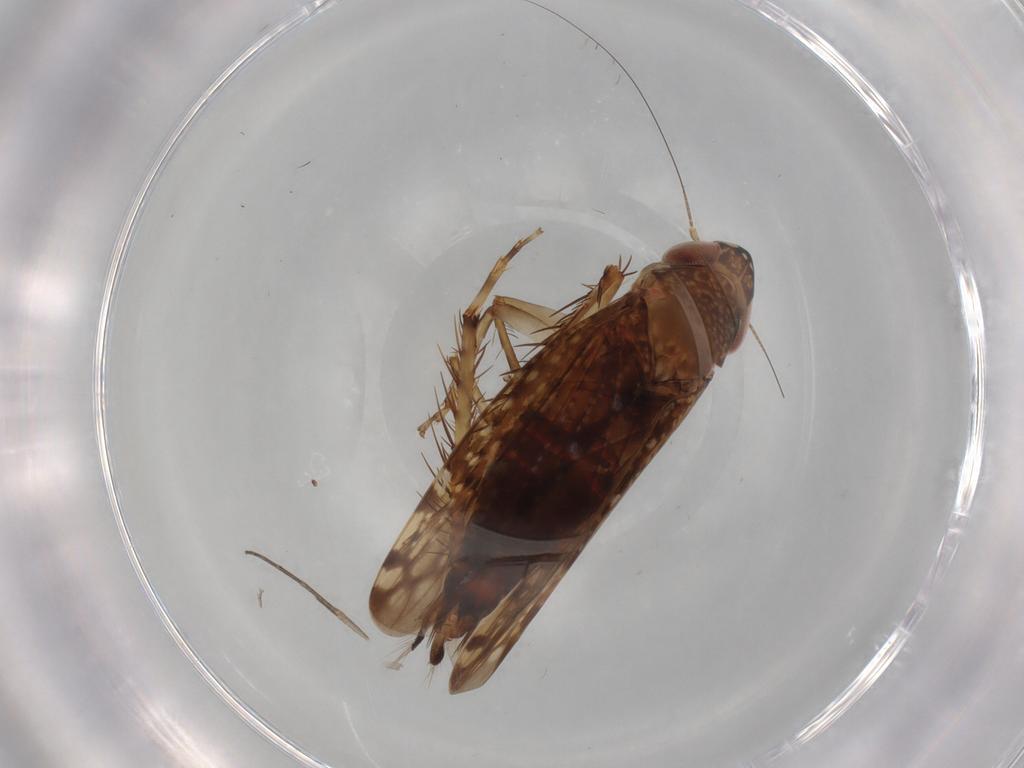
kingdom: Animalia
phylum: Arthropoda
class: Insecta
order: Hemiptera
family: Cicadellidae
